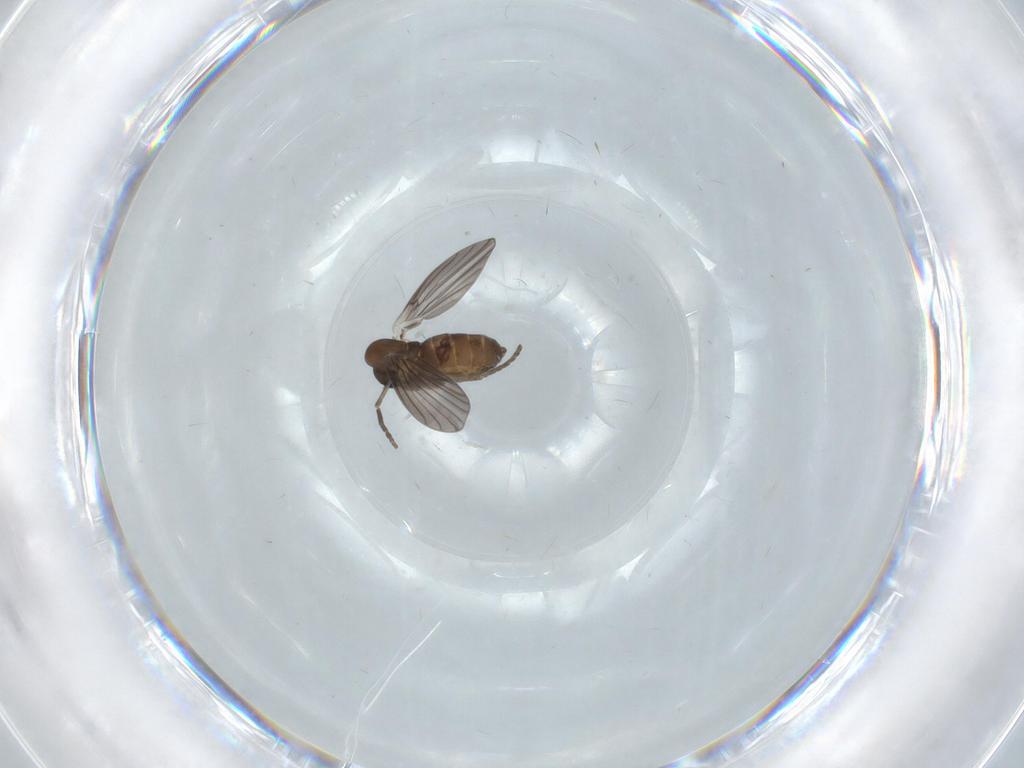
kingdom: Animalia
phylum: Arthropoda
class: Insecta
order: Diptera
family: Psychodidae
